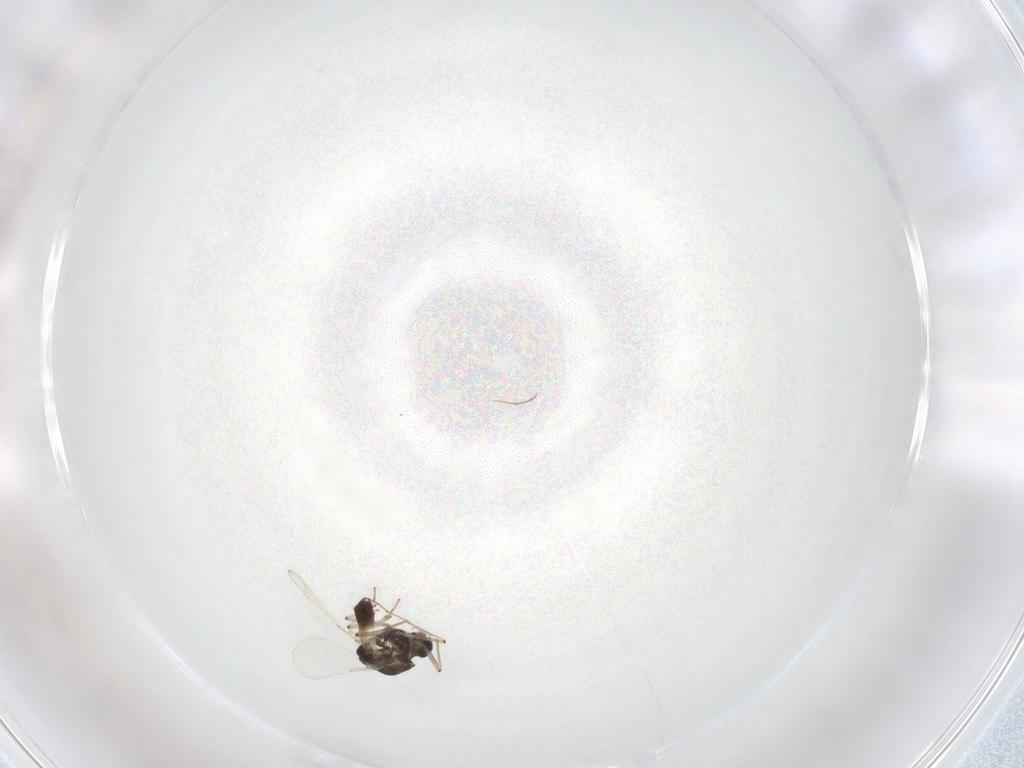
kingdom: Animalia
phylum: Arthropoda
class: Insecta
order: Diptera
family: Chironomidae
